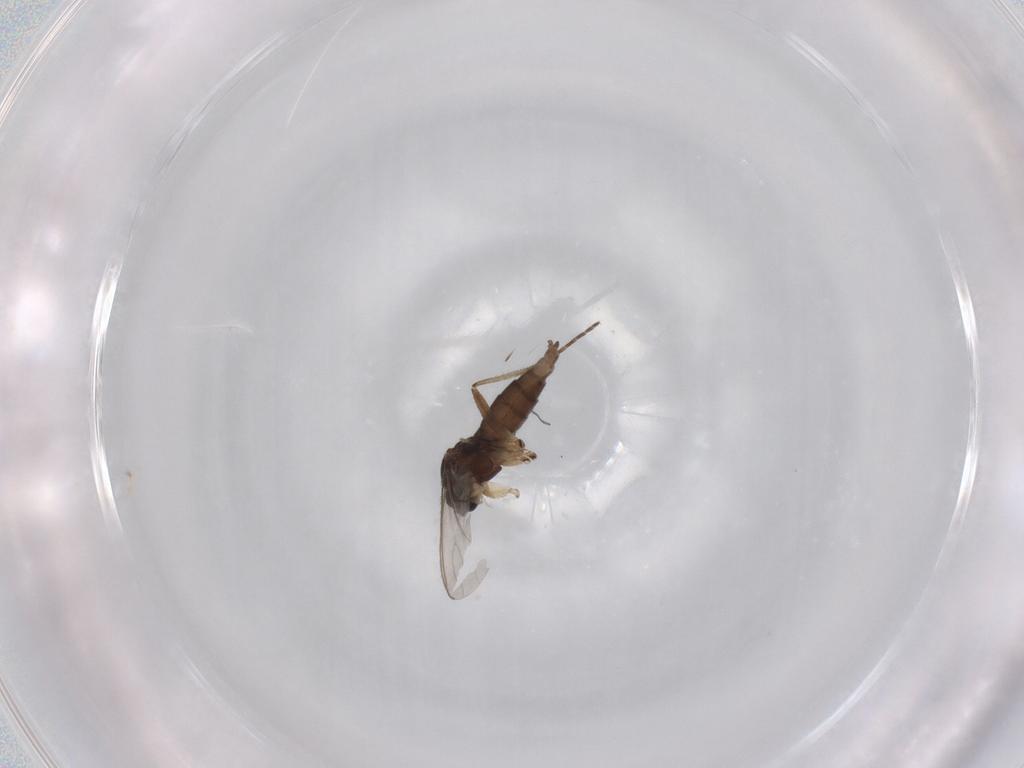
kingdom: Animalia
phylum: Arthropoda
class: Insecta
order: Diptera
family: Sciaridae
